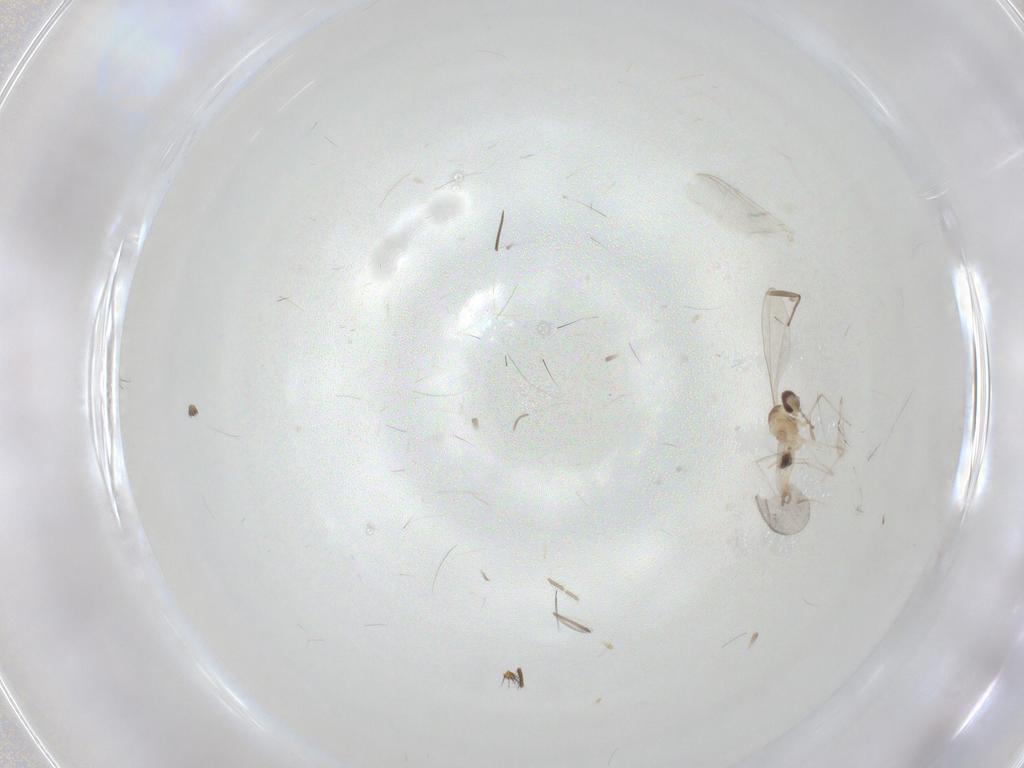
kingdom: Animalia
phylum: Arthropoda
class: Insecta
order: Diptera
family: Chironomidae
